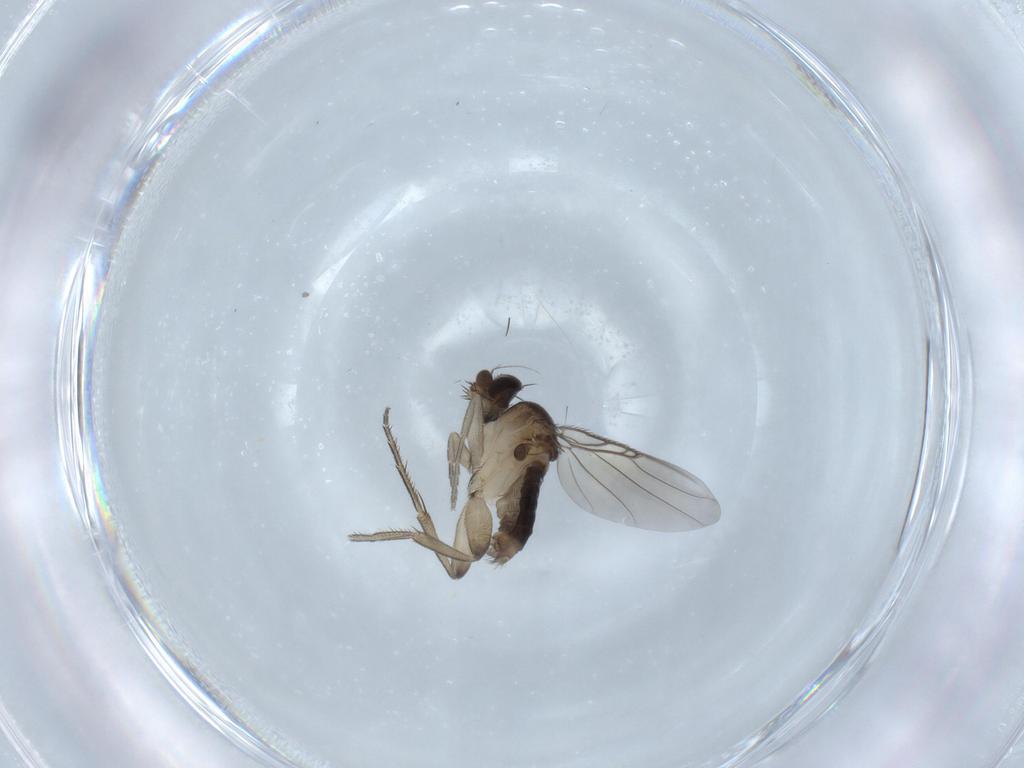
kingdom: Animalia
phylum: Arthropoda
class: Insecta
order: Diptera
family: Phoridae
